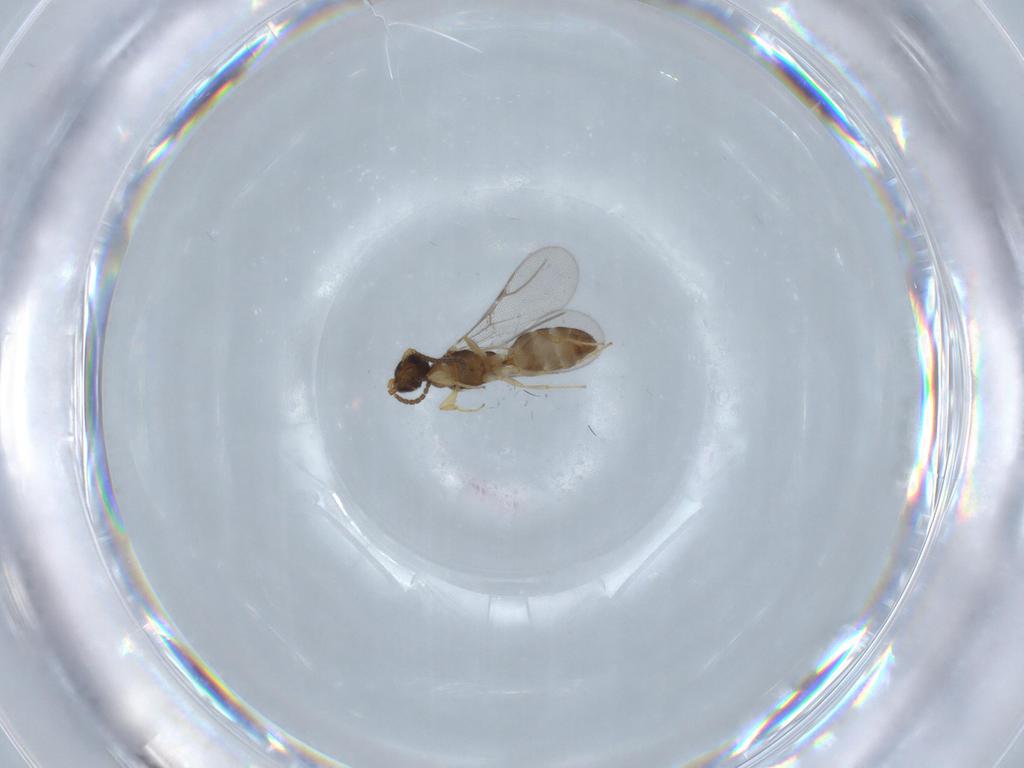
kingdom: Animalia
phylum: Arthropoda
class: Insecta
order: Hymenoptera
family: Bethylidae
